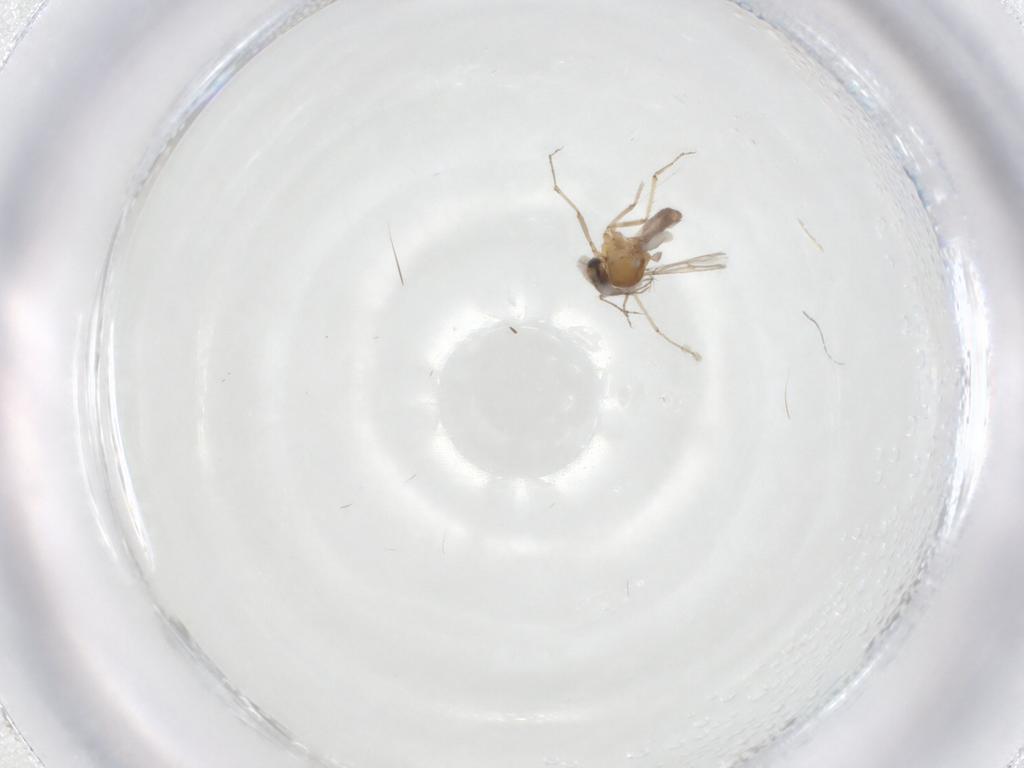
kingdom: Animalia
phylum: Arthropoda
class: Insecta
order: Diptera
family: Ceratopogonidae
